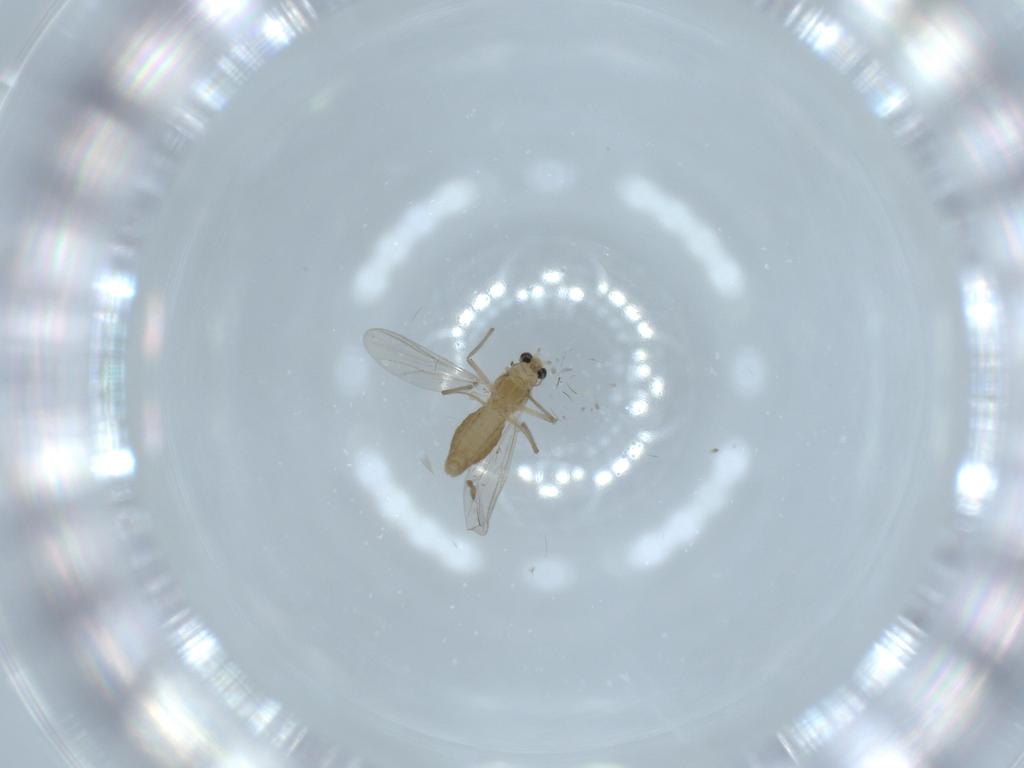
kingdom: Animalia
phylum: Arthropoda
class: Insecta
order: Diptera
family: Chironomidae
